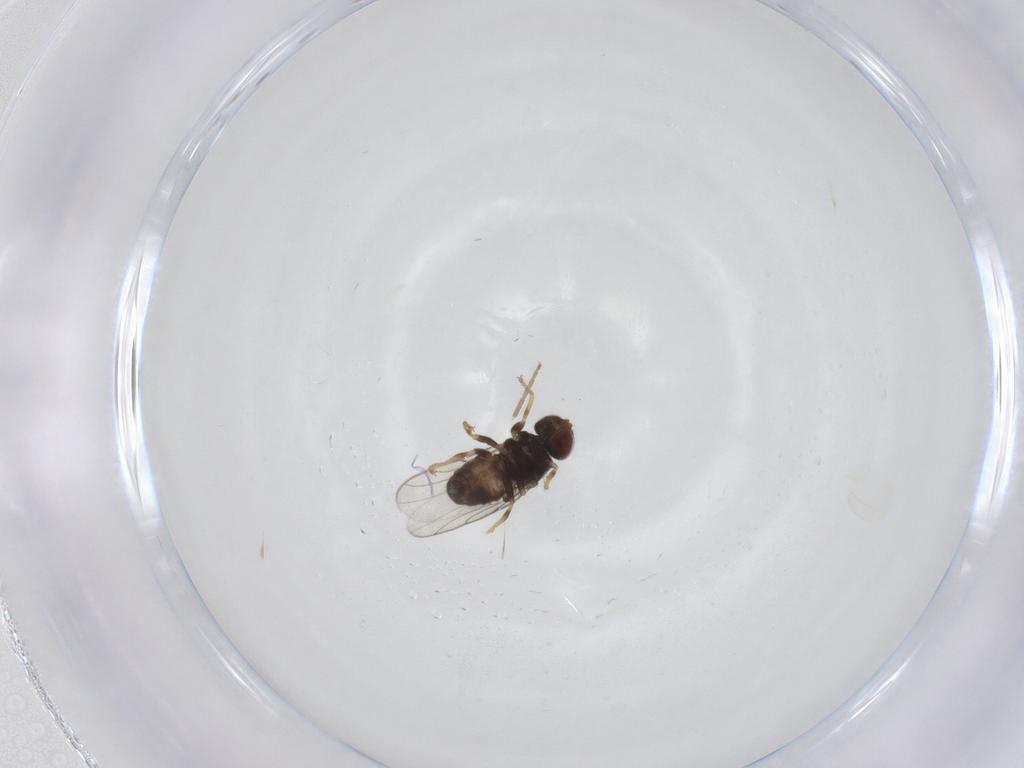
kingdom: Animalia
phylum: Arthropoda
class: Insecta
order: Diptera
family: Chloropidae
